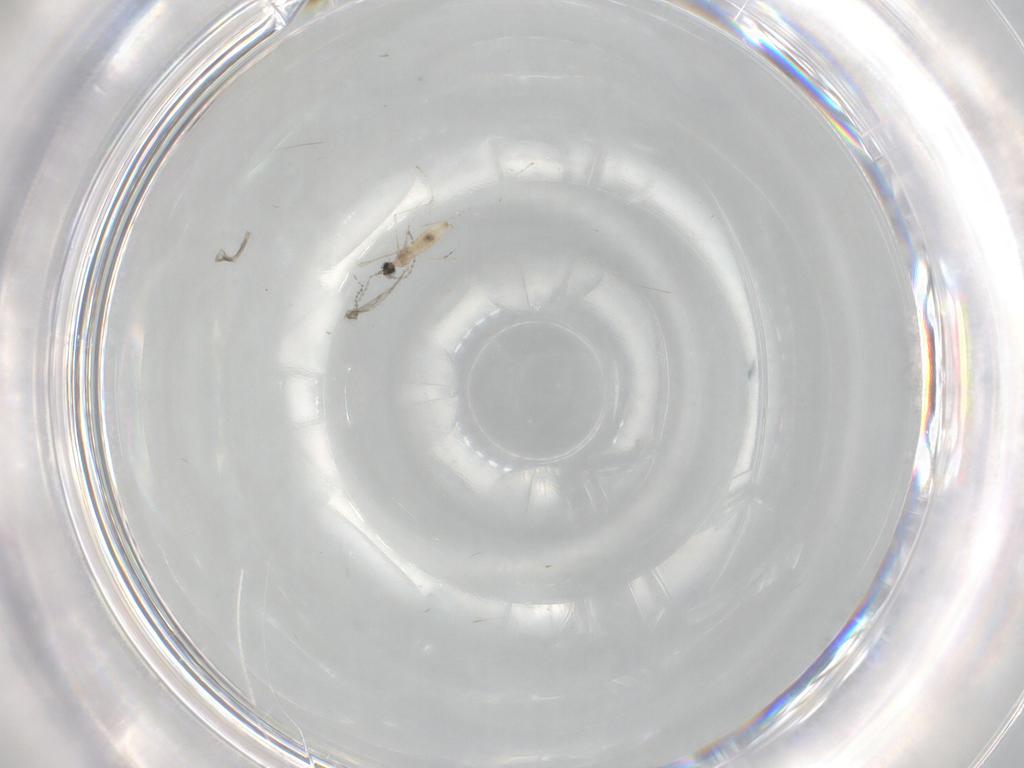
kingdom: Animalia
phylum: Arthropoda
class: Insecta
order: Diptera
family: Cecidomyiidae
